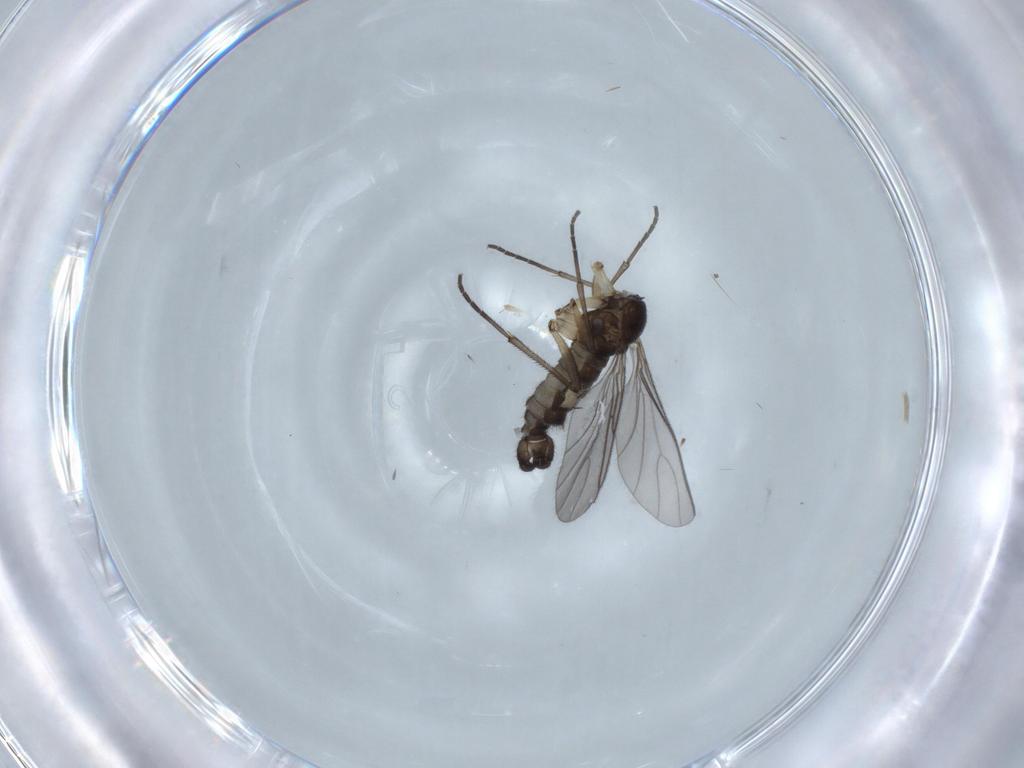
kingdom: Animalia
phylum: Arthropoda
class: Insecta
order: Diptera
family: Sciaridae
